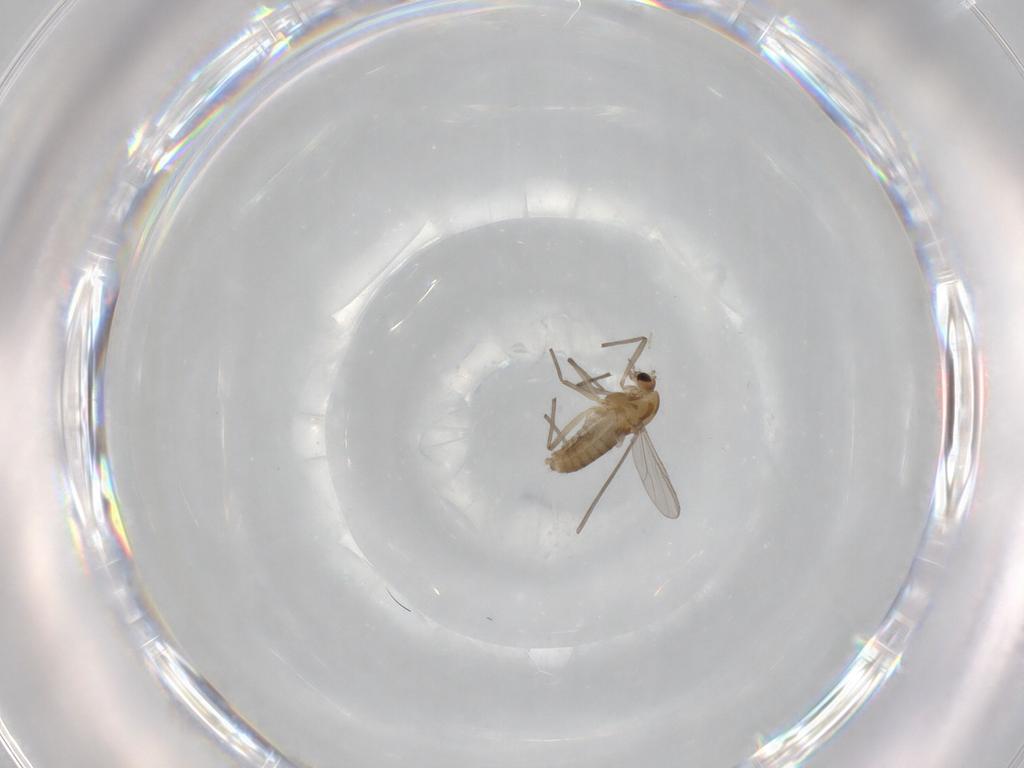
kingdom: Animalia
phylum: Arthropoda
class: Insecta
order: Diptera
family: Chironomidae
